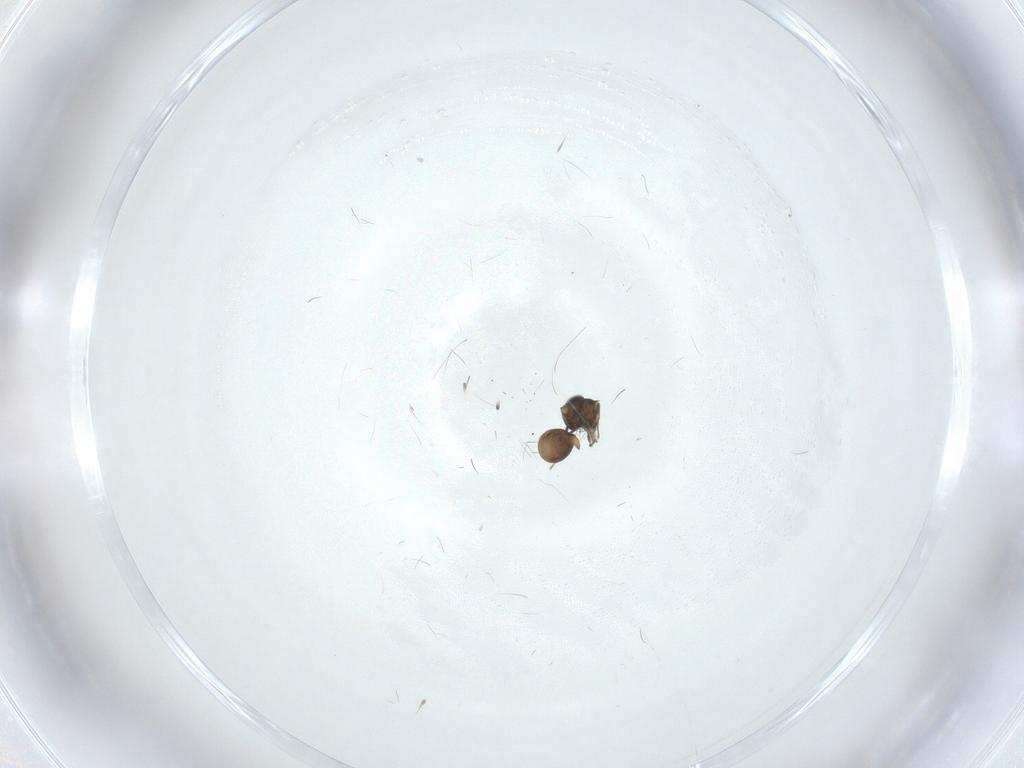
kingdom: Animalia
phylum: Arthropoda
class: Insecta
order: Hymenoptera
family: Scelionidae
